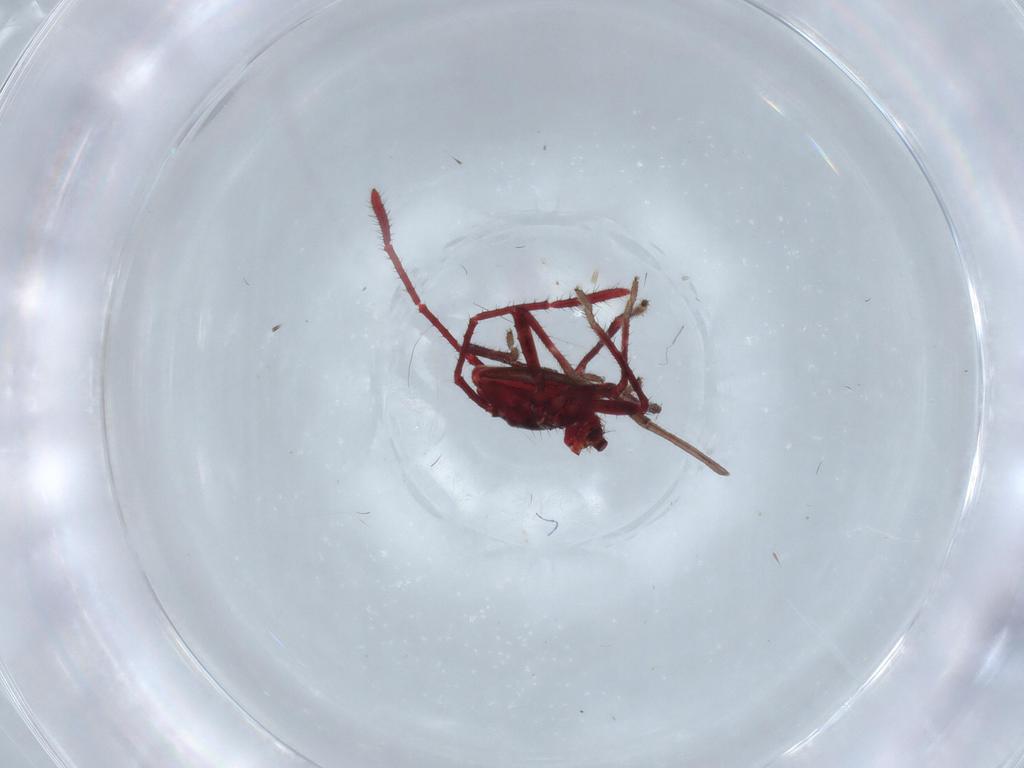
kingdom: Animalia
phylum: Arthropoda
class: Insecta
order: Hemiptera
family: Coreidae
